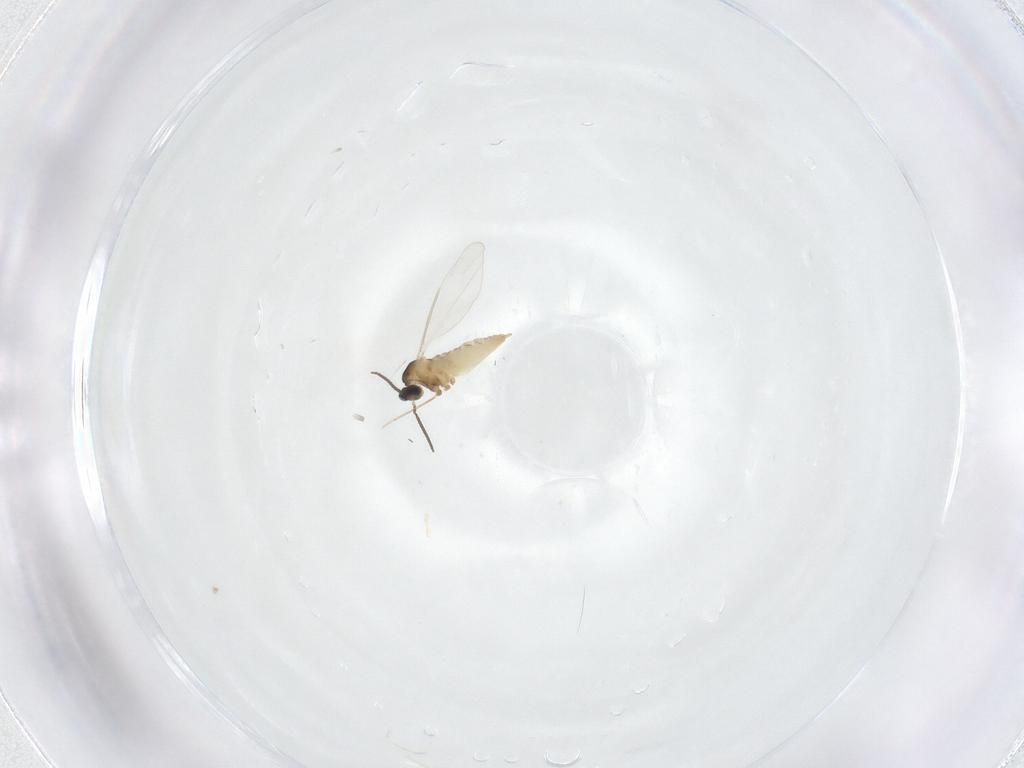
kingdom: Animalia
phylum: Arthropoda
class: Insecta
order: Diptera
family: Cecidomyiidae
